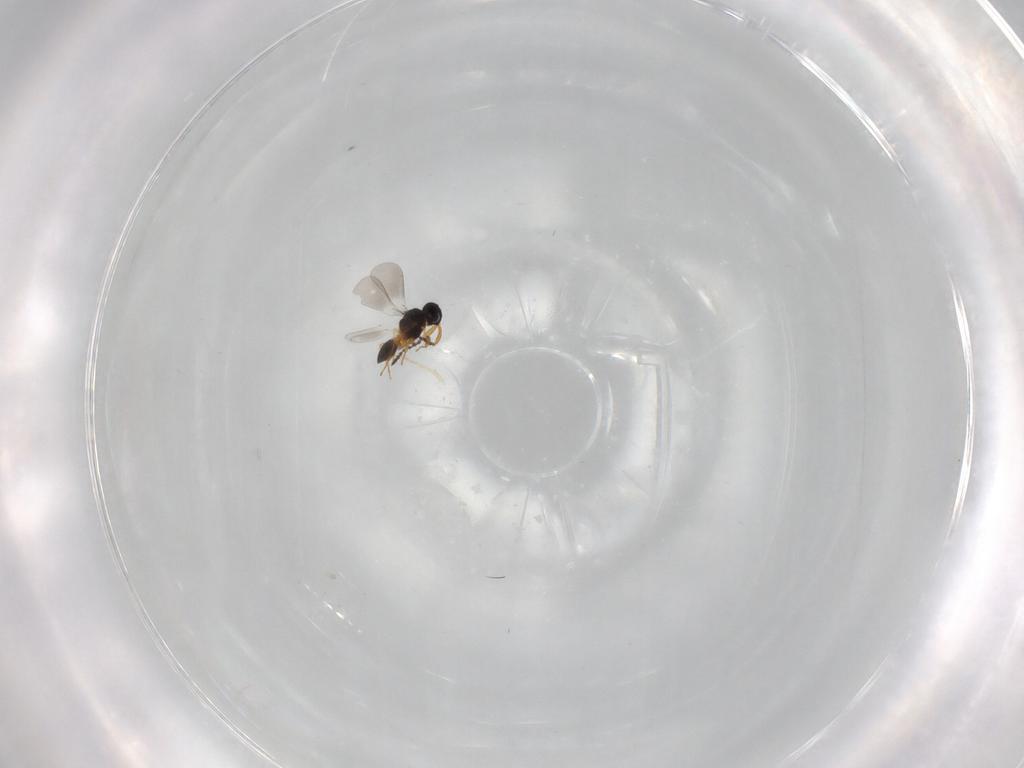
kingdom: Animalia
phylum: Arthropoda
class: Insecta
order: Hymenoptera
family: Platygastridae
